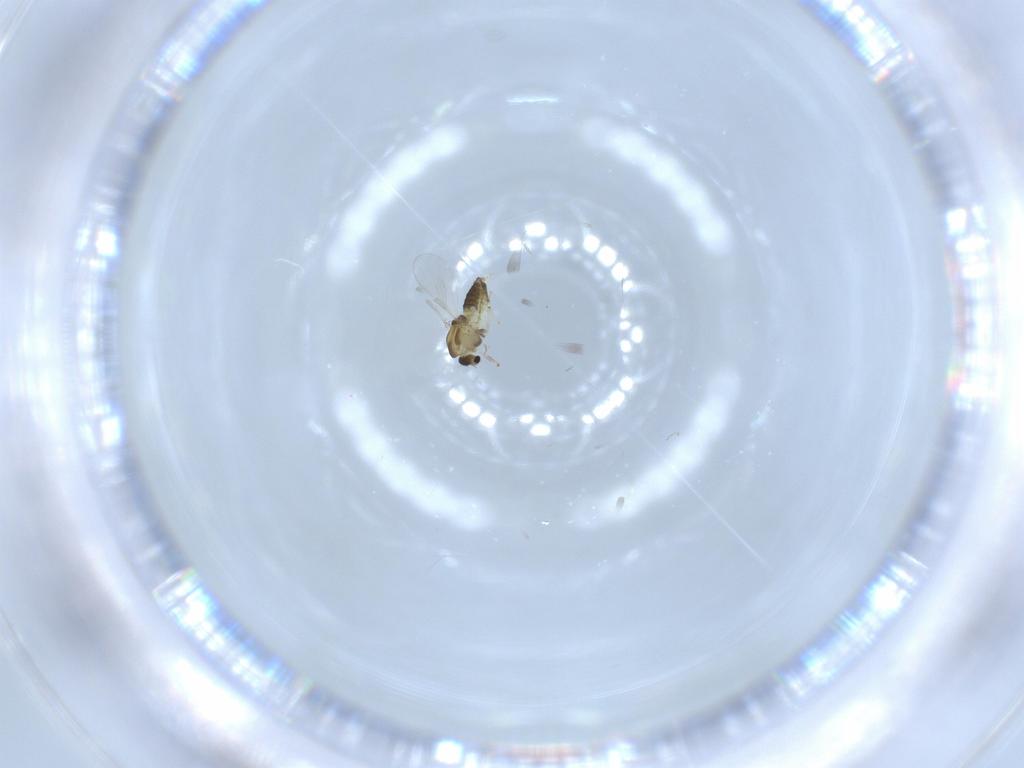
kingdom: Animalia
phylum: Arthropoda
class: Insecta
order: Diptera
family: Chironomidae
